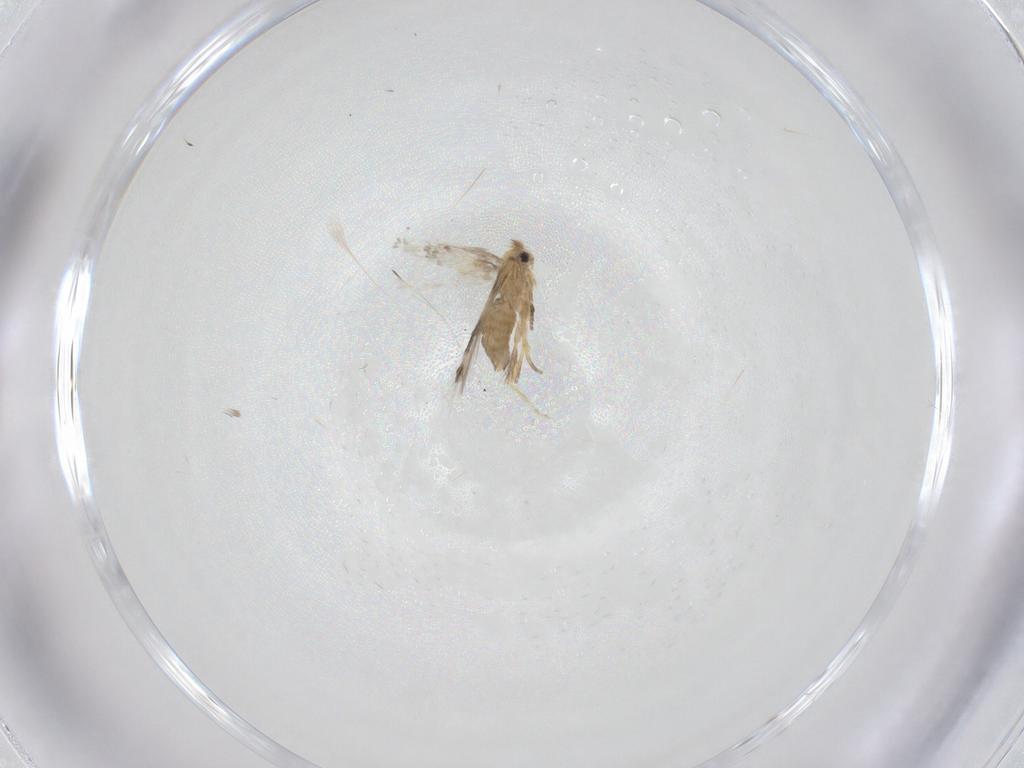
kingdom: Animalia
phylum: Arthropoda
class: Insecta
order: Lepidoptera
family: Nepticulidae
